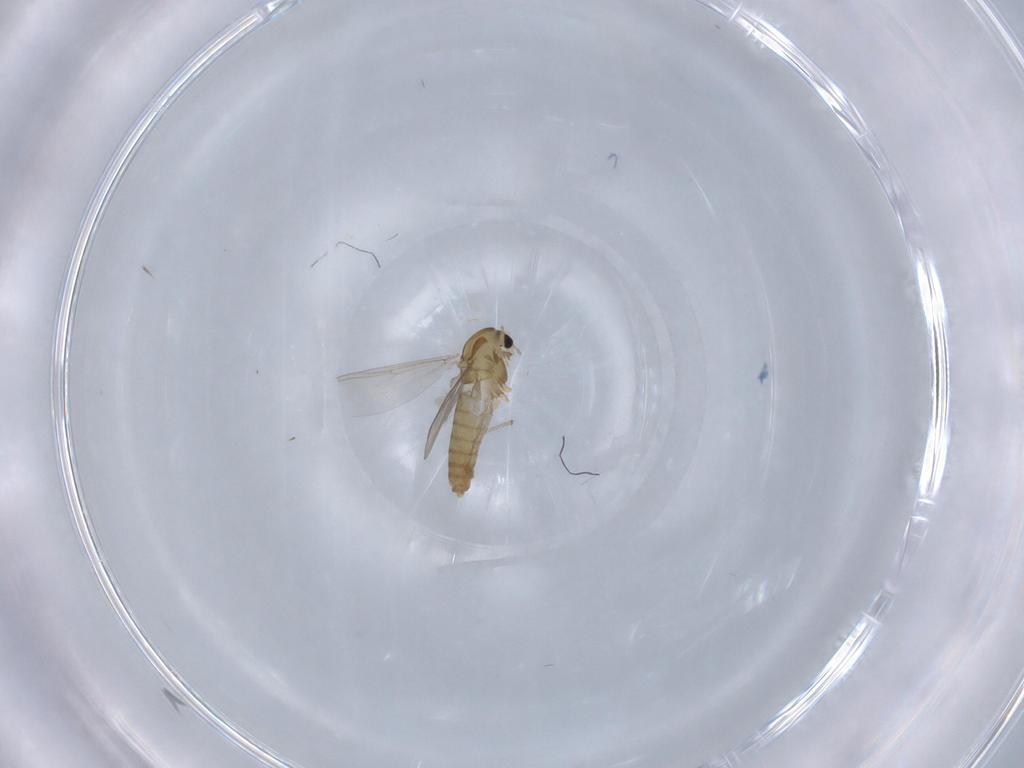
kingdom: Animalia
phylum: Arthropoda
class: Insecta
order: Diptera
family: Chironomidae
